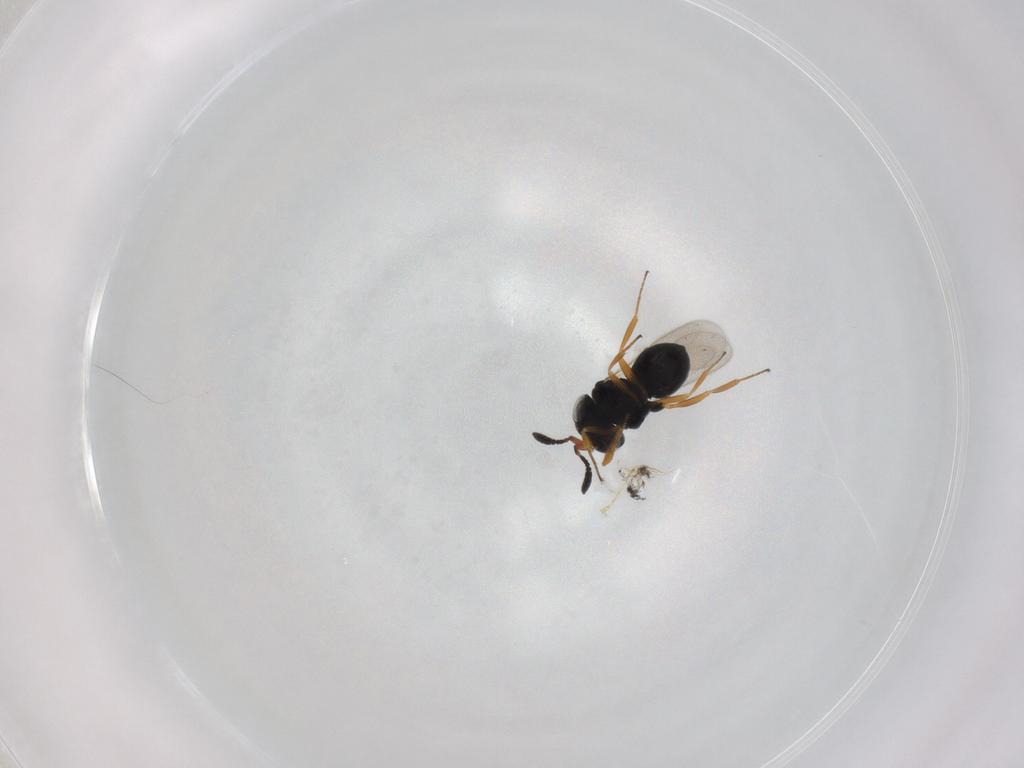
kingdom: Animalia
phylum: Arthropoda
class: Insecta
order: Hymenoptera
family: Scelionidae
